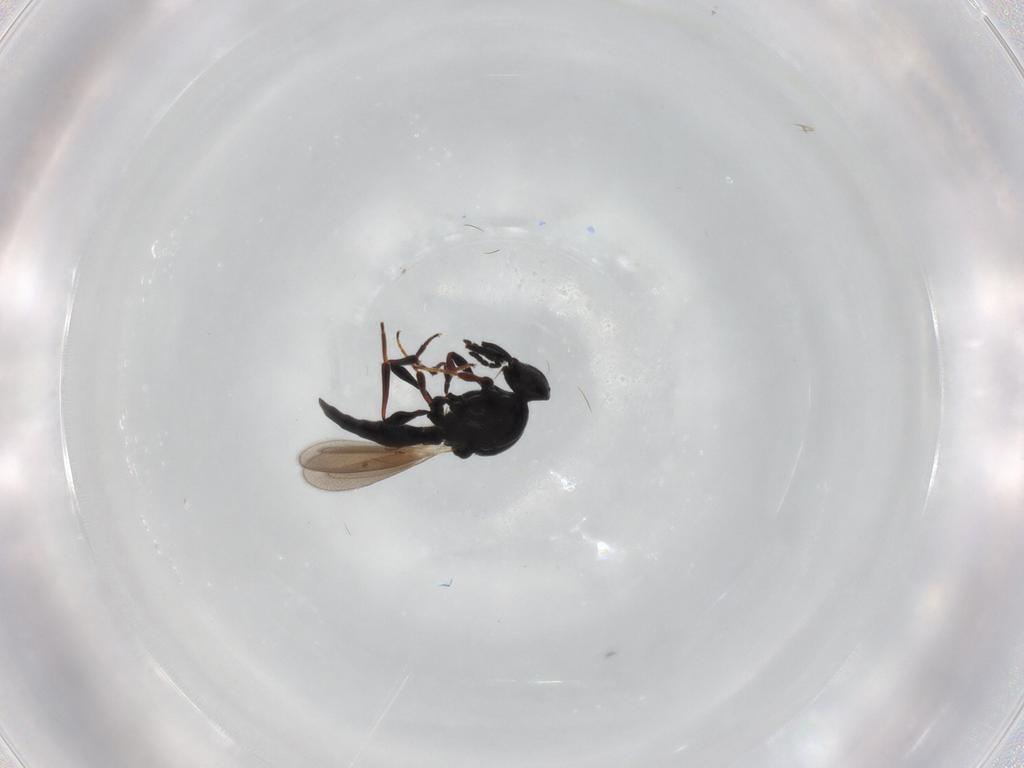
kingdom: Animalia
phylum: Arthropoda
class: Insecta
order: Hymenoptera
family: Platygastridae
